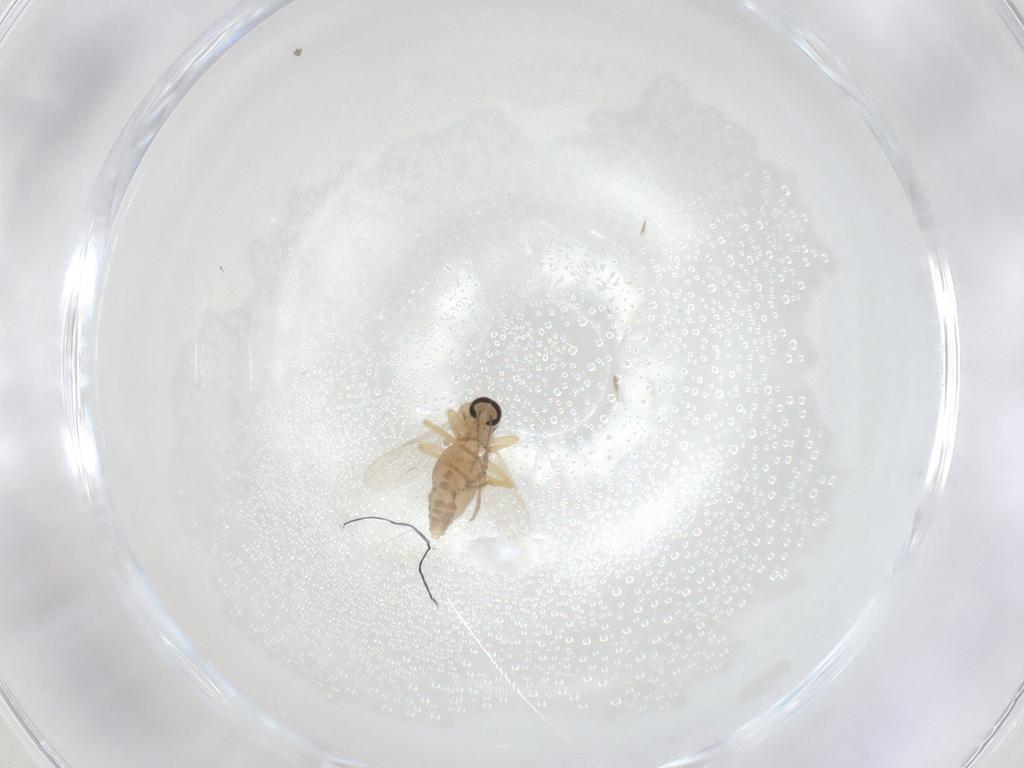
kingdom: Animalia
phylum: Arthropoda
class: Insecta
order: Diptera
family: Ceratopogonidae
